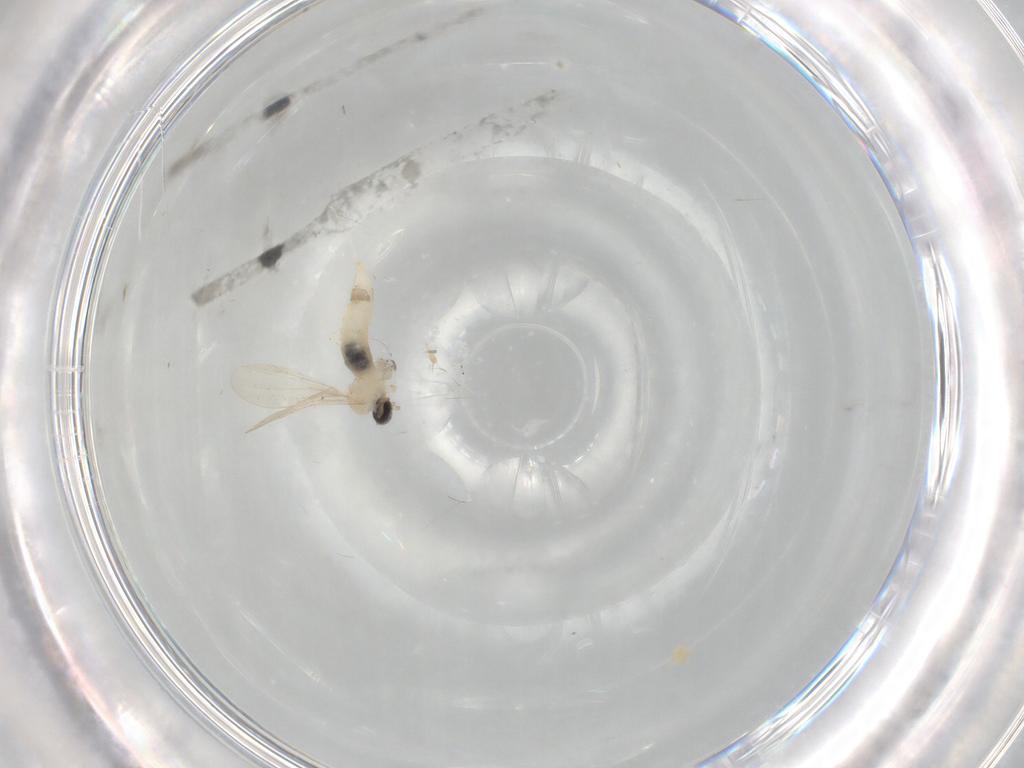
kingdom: Animalia
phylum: Arthropoda
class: Insecta
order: Diptera
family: Cecidomyiidae
